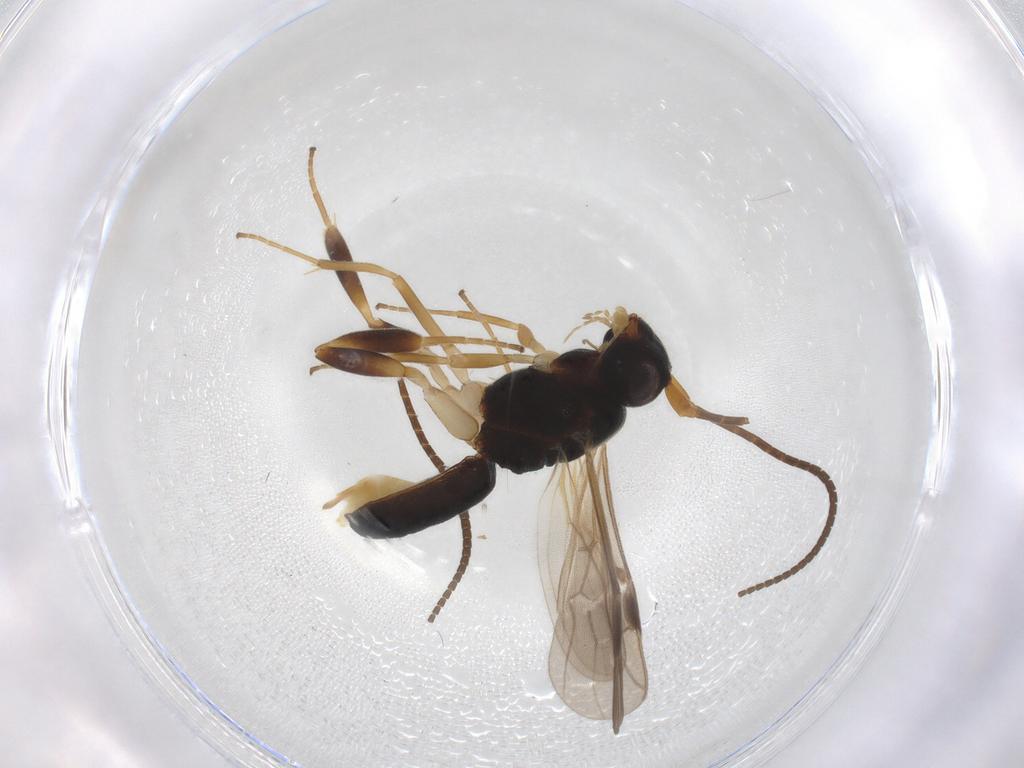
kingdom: Animalia
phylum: Arthropoda
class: Insecta
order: Hymenoptera
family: Braconidae
